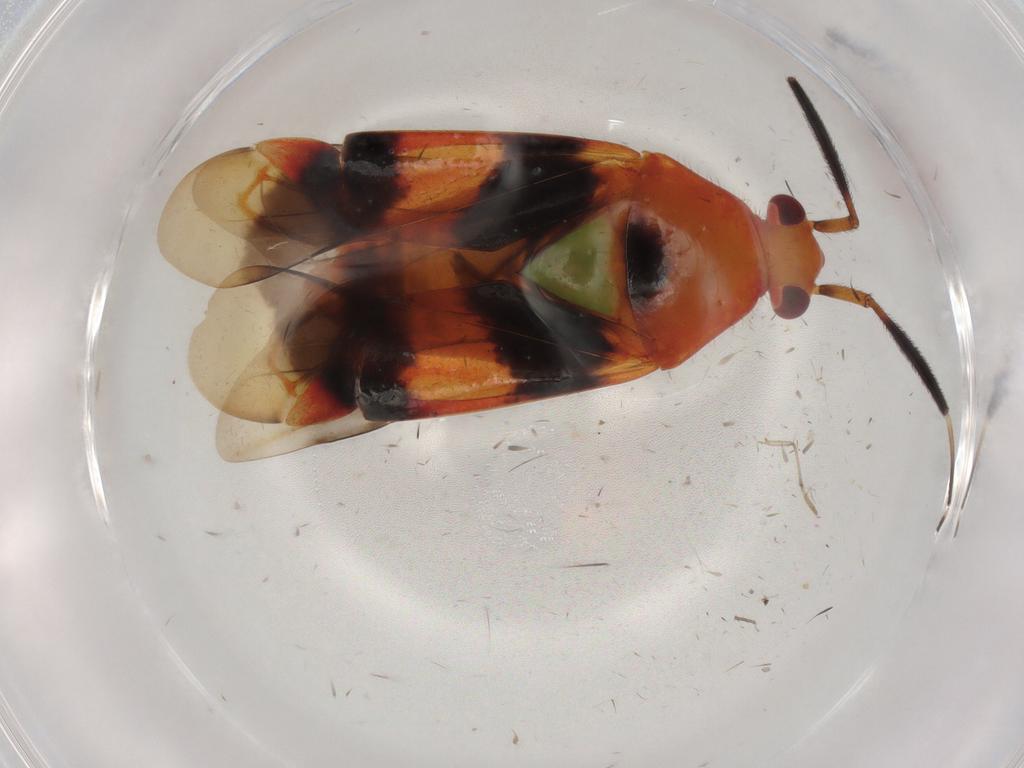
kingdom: Animalia
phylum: Arthropoda
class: Insecta
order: Hemiptera
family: Miridae
